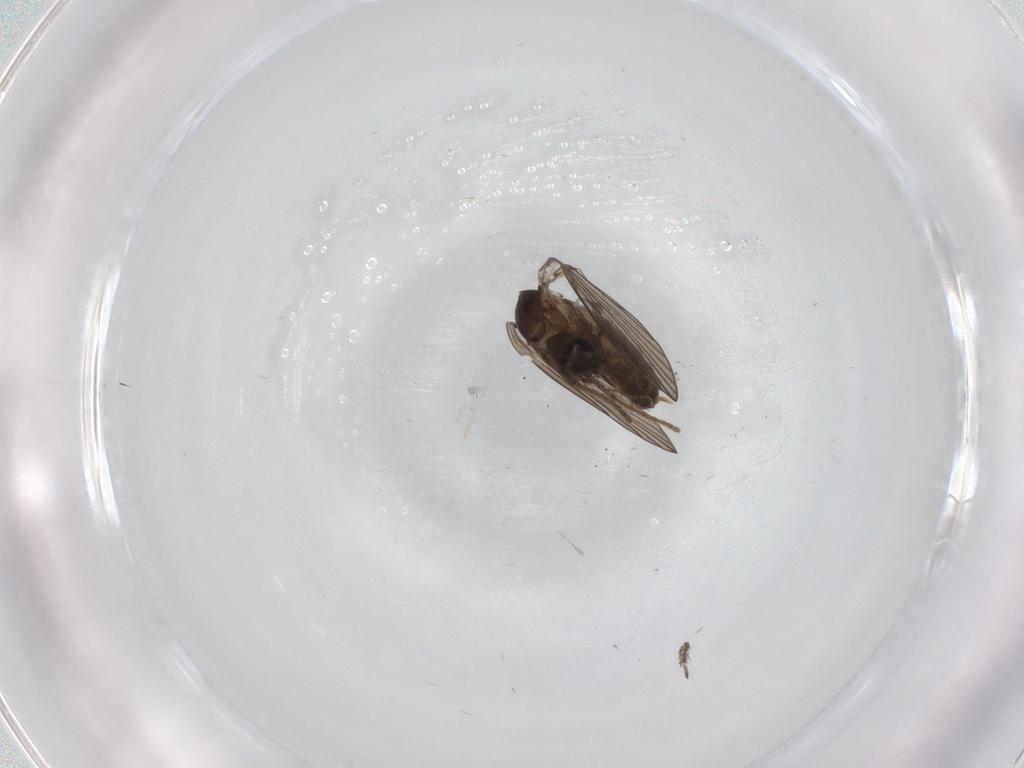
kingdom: Animalia
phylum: Arthropoda
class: Insecta
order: Diptera
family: Psychodidae
